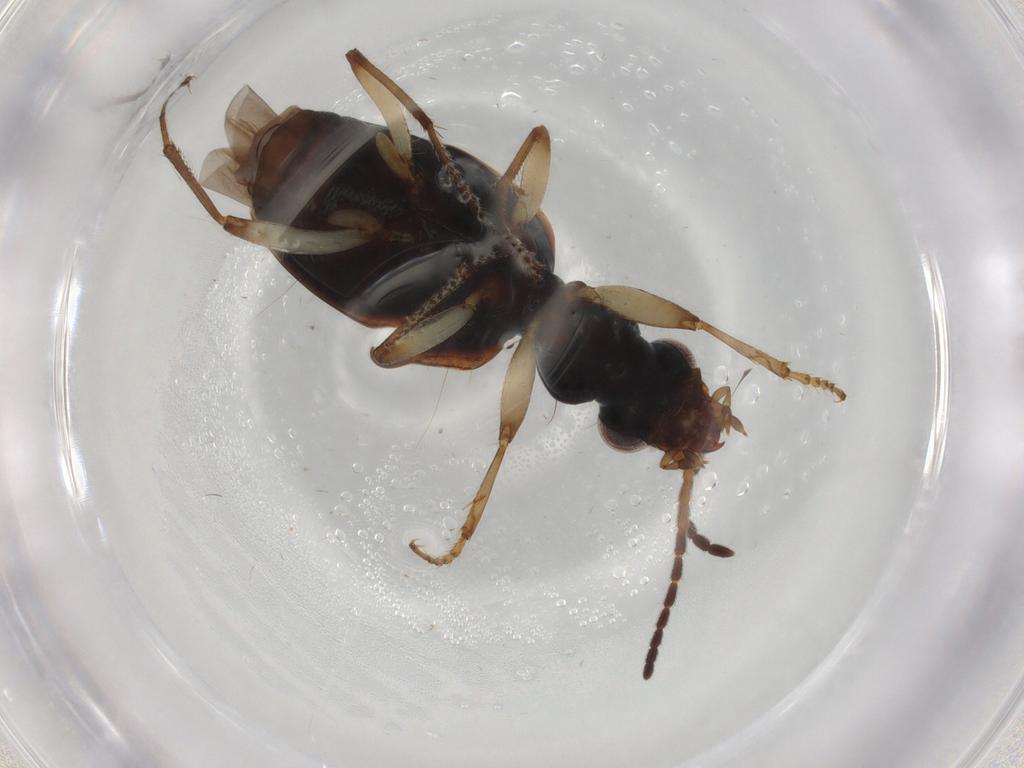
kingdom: Animalia
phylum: Arthropoda
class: Insecta
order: Coleoptera
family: Carabidae
